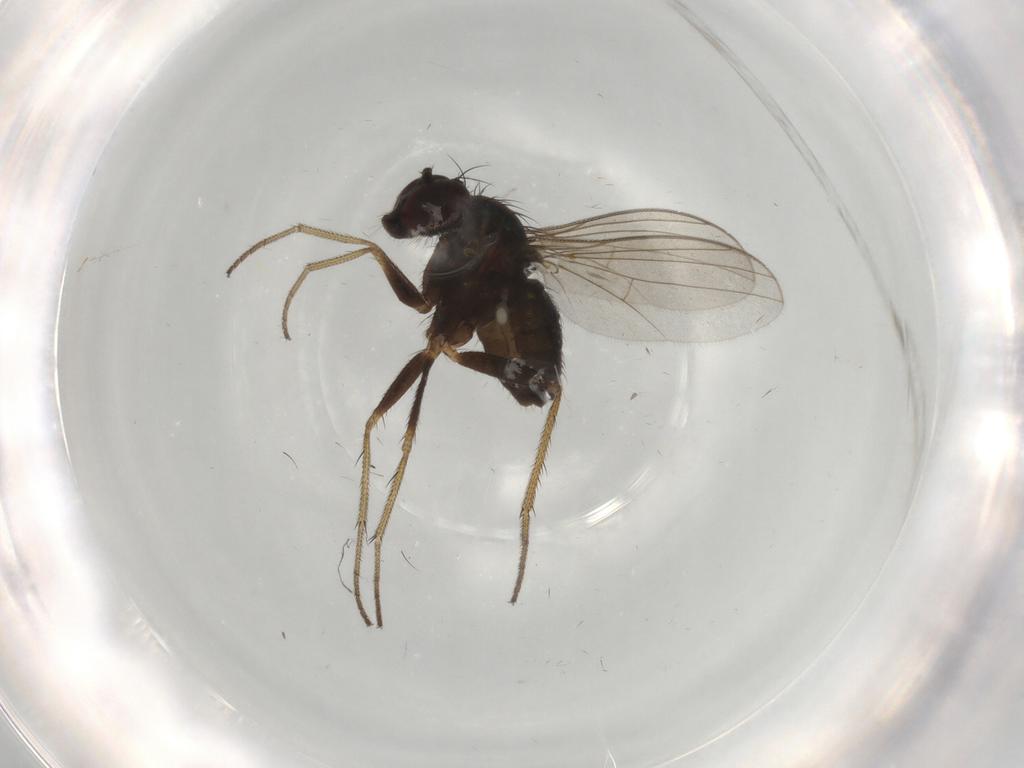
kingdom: Animalia
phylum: Arthropoda
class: Insecta
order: Diptera
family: Dolichopodidae
